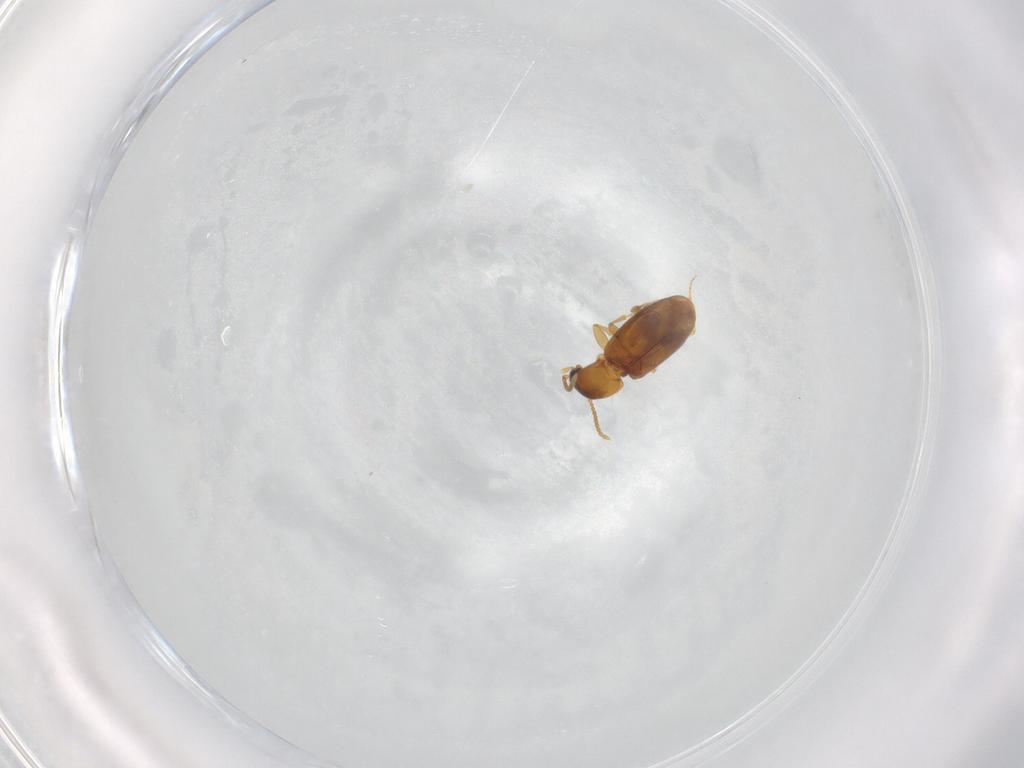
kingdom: Animalia
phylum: Arthropoda
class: Insecta
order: Coleoptera
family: Carabidae
